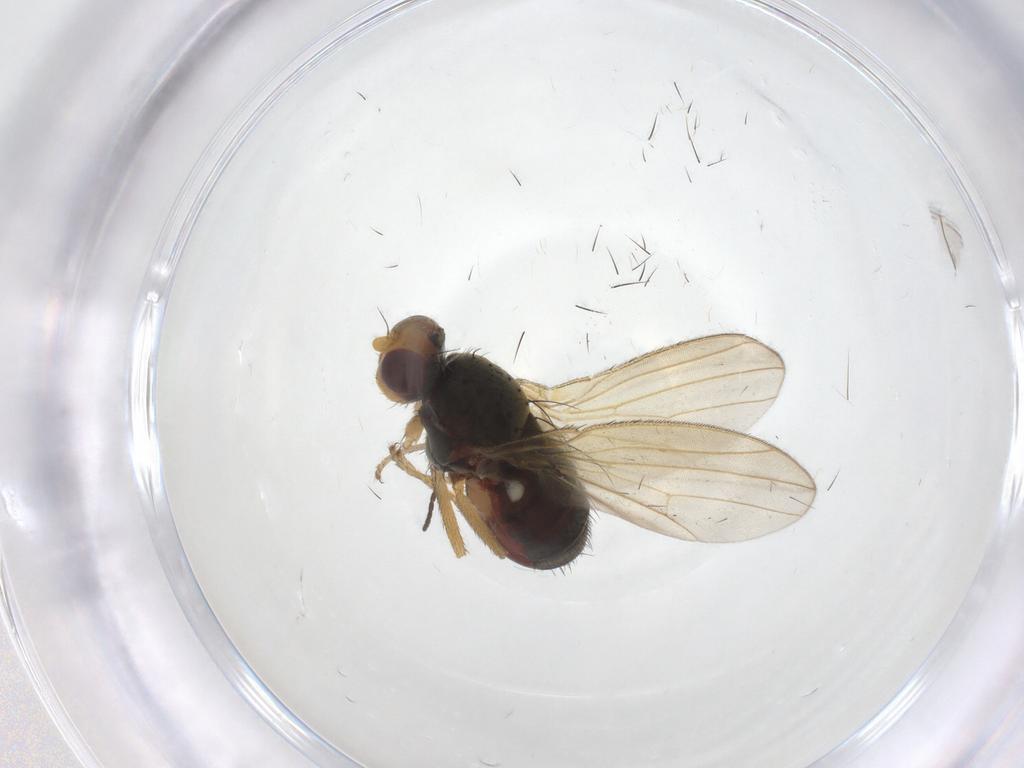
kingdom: Animalia
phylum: Arthropoda
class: Insecta
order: Diptera
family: Heleomyzidae
